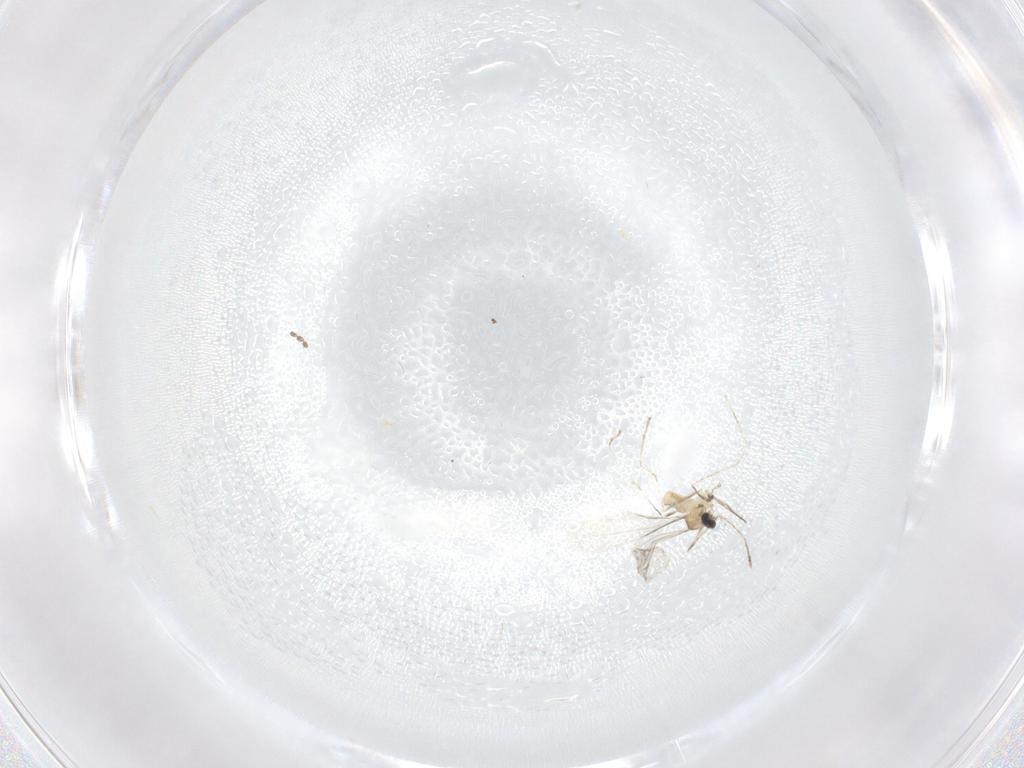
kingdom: Animalia
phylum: Arthropoda
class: Insecta
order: Diptera
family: Cecidomyiidae
